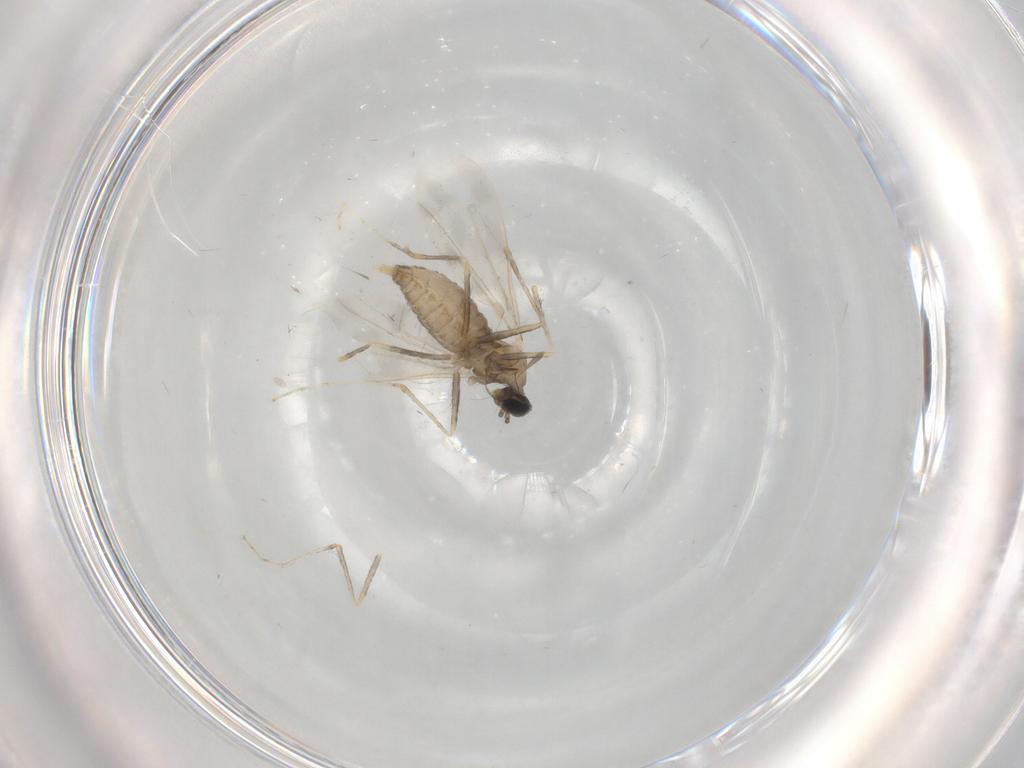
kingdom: Animalia
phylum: Arthropoda
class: Insecta
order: Diptera
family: Cecidomyiidae
